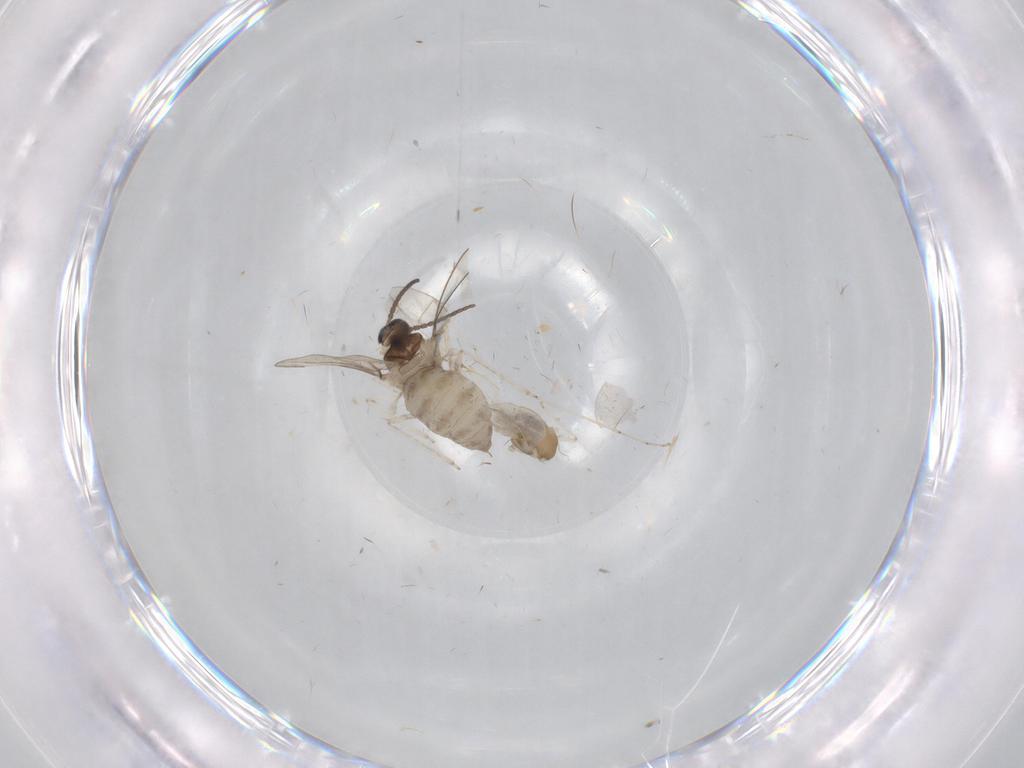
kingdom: Animalia
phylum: Arthropoda
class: Insecta
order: Diptera
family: Cecidomyiidae
